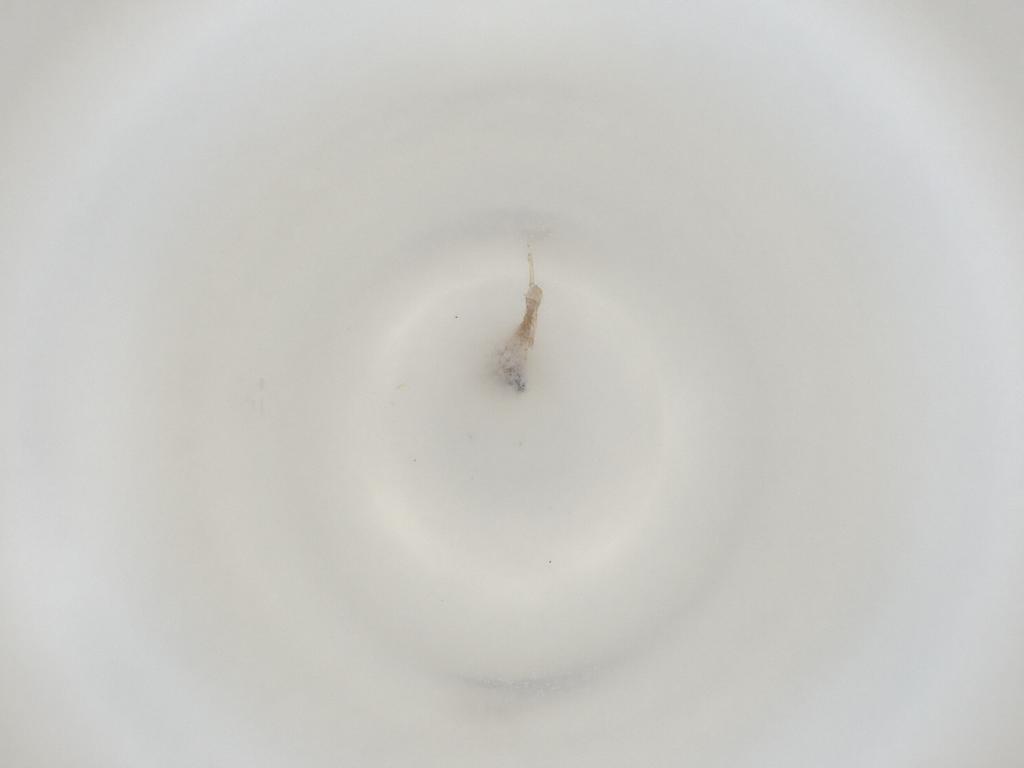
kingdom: Animalia
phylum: Arthropoda
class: Insecta
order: Diptera
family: Cecidomyiidae
